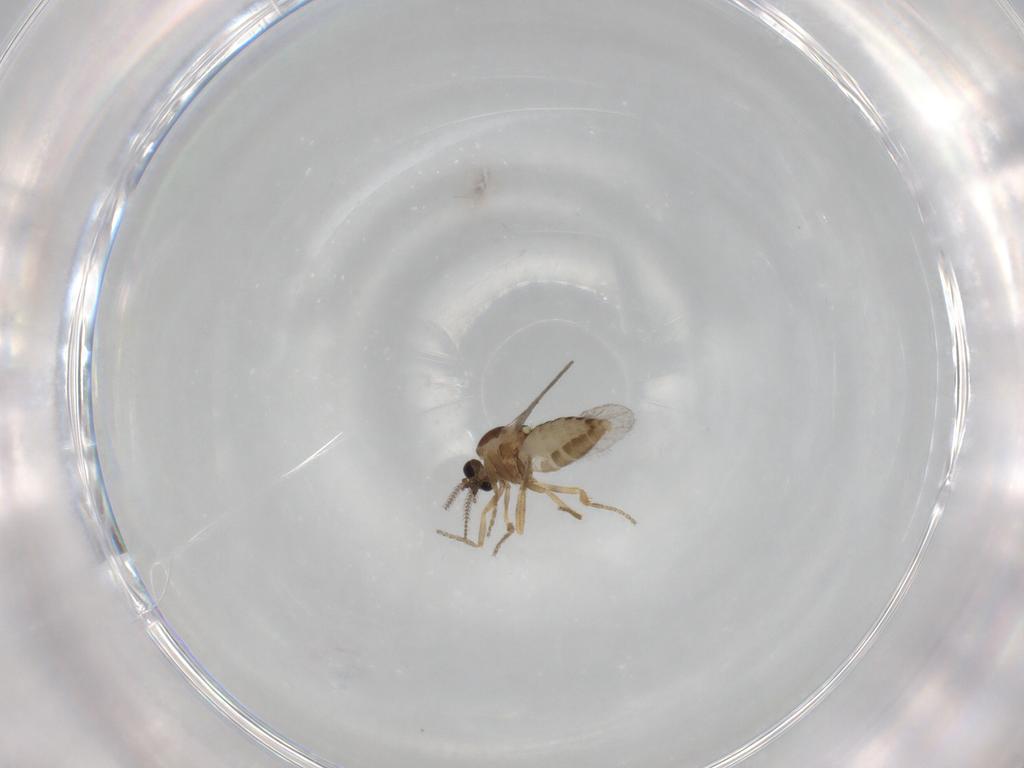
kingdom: Animalia
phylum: Arthropoda
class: Insecta
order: Diptera
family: Ceratopogonidae
